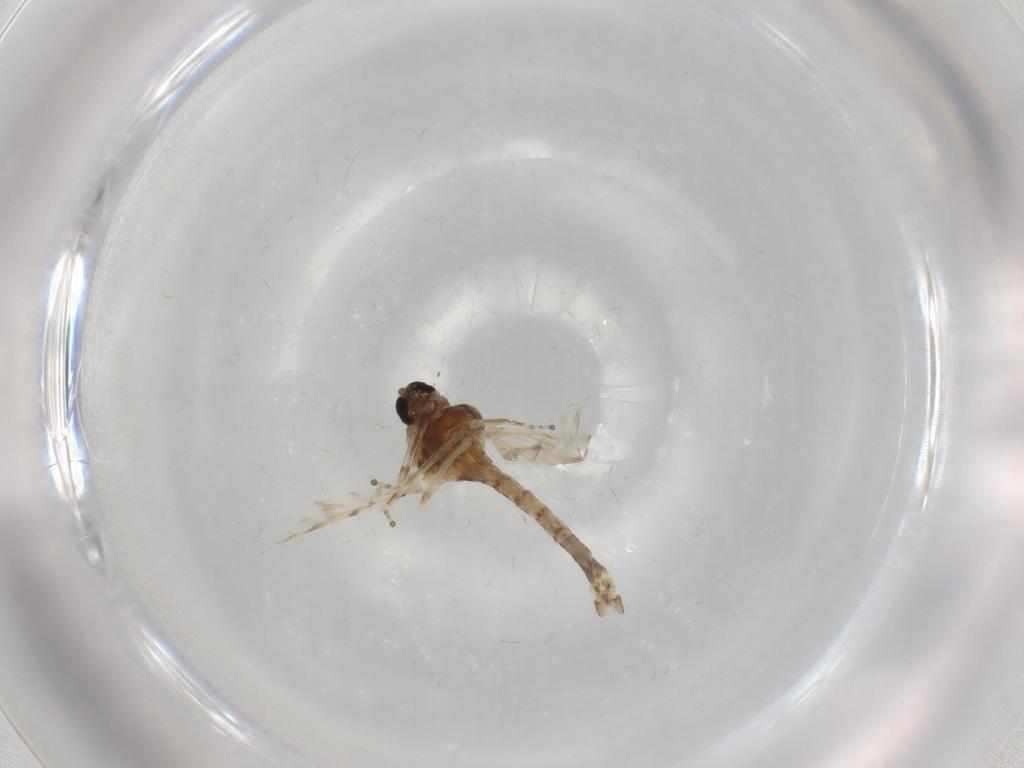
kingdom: Animalia
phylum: Arthropoda
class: Insecta
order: Diptera
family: Chironomidae
